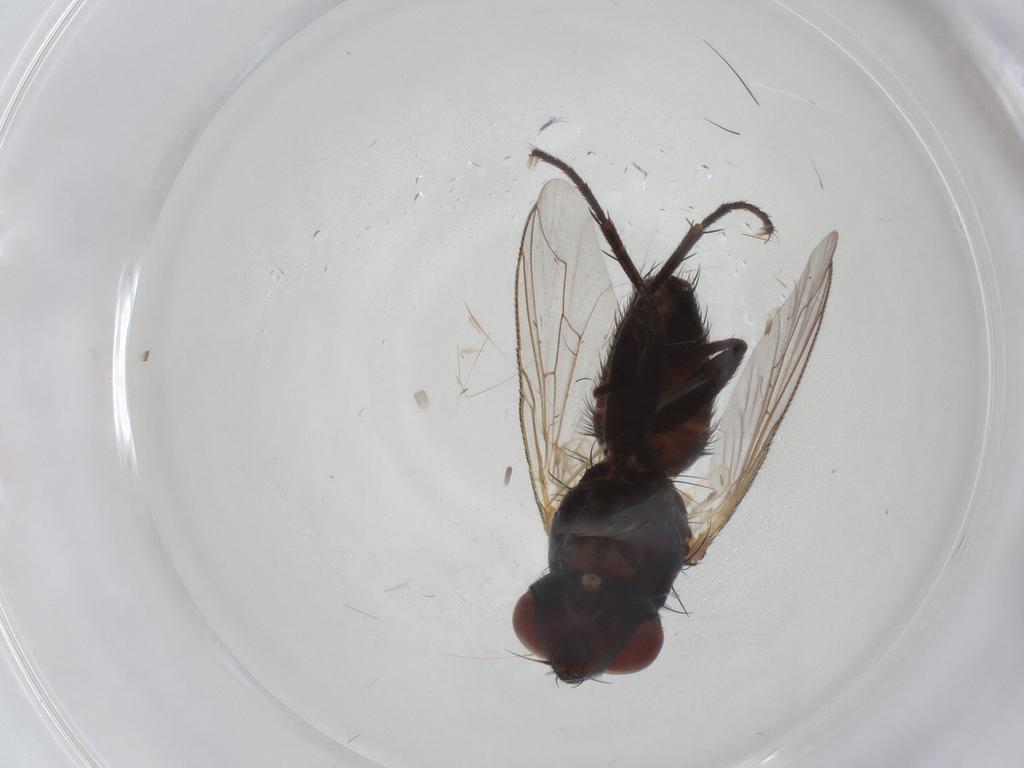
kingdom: Animalia
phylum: Arthropoda
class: Insecta
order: Diptera
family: Sarcophagidae
